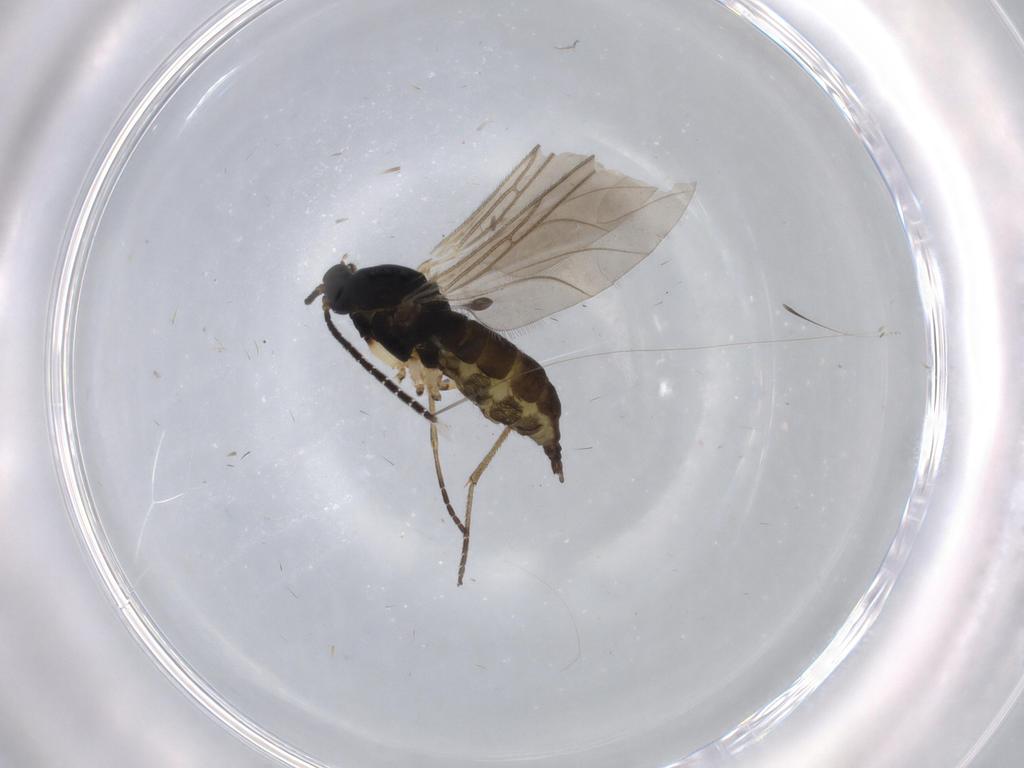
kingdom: Animalia
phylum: Arthropoda
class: Insecta
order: Diptera
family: Sciaridae
